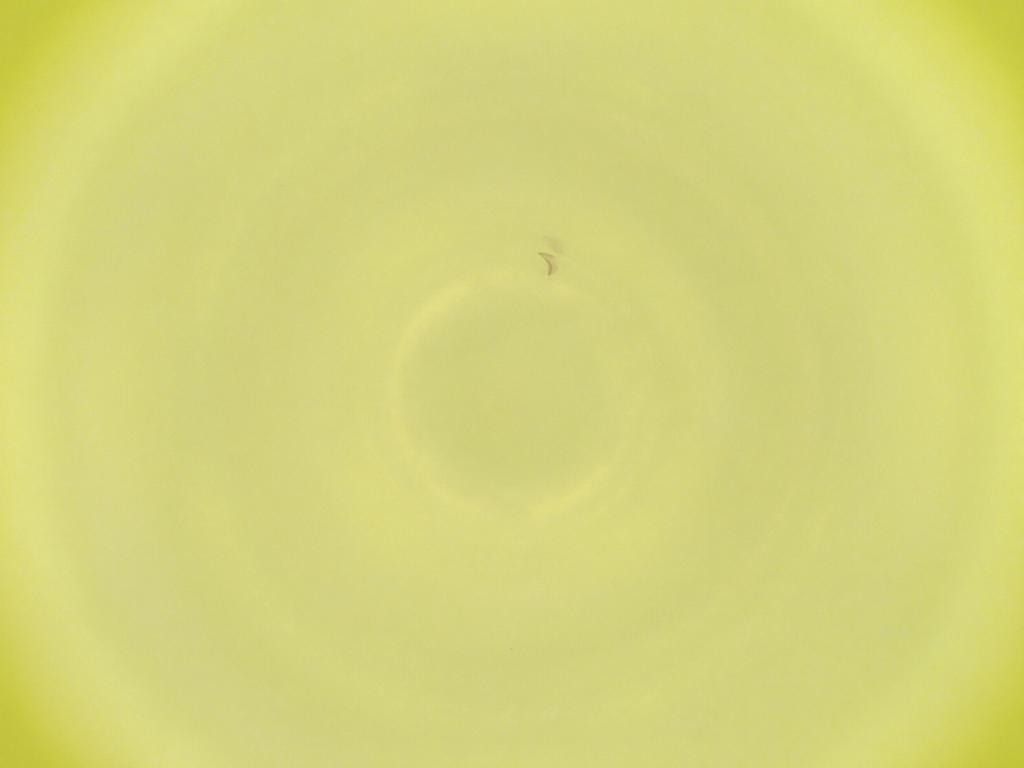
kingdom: Animalia
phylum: Arthropoda
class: Insecta
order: Diptera
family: Cecidomyiidae
